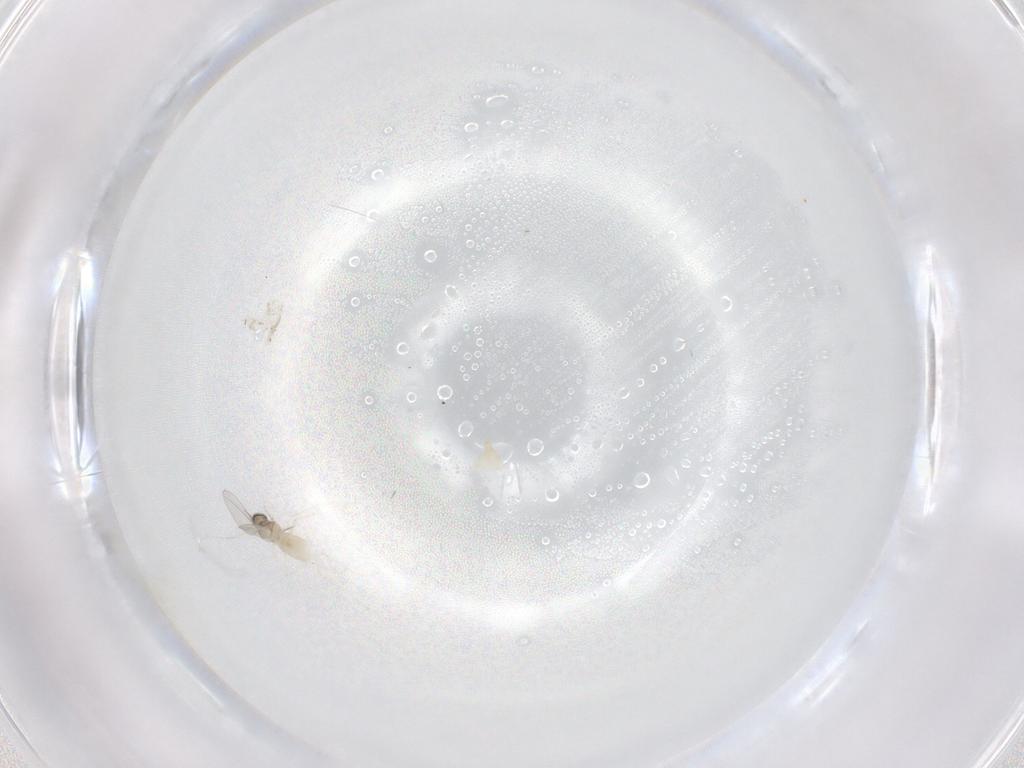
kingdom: Animalia
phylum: Arthropoda
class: Insecta
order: Diptera
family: Cecidomyiidae
